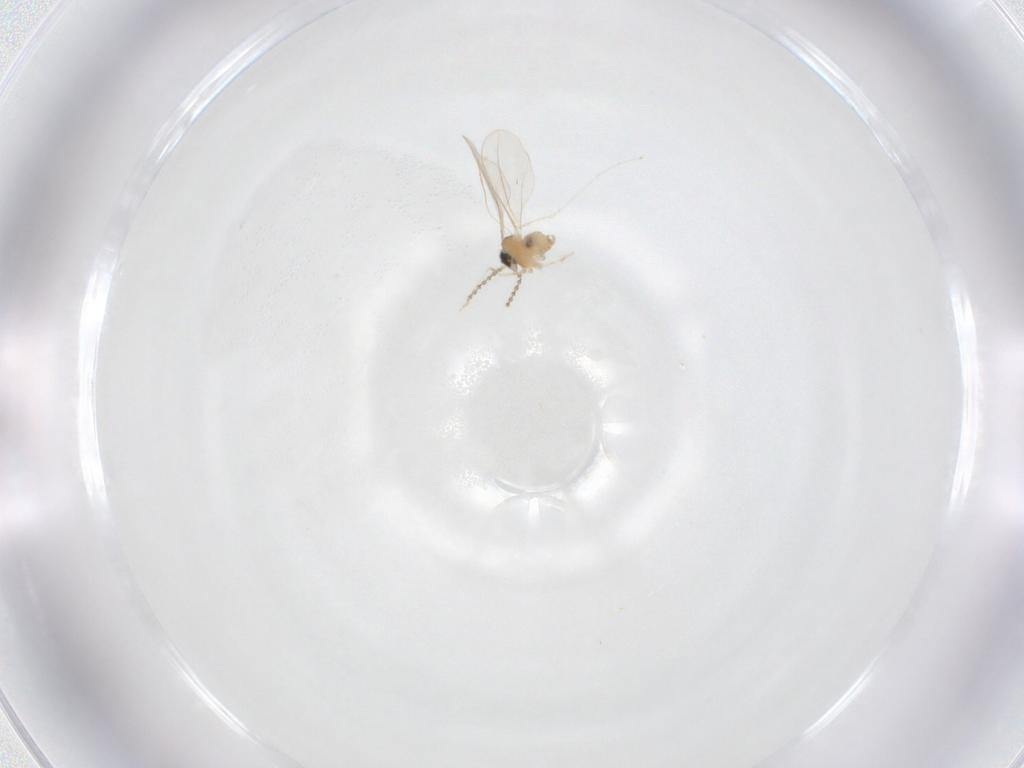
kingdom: Animalia
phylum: Arthropoda
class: Insecta
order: Diptera
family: Cecidomyiidae
